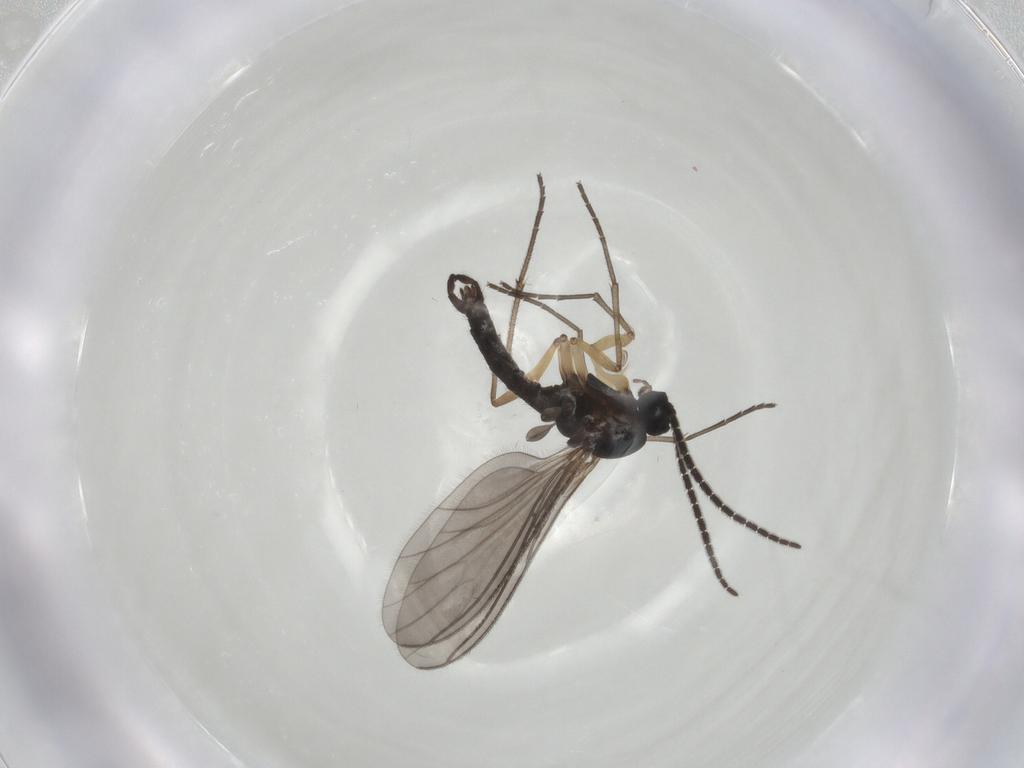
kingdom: Animalia
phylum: Arthropoda
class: Insecta
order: Diptera
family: Sciaridae
